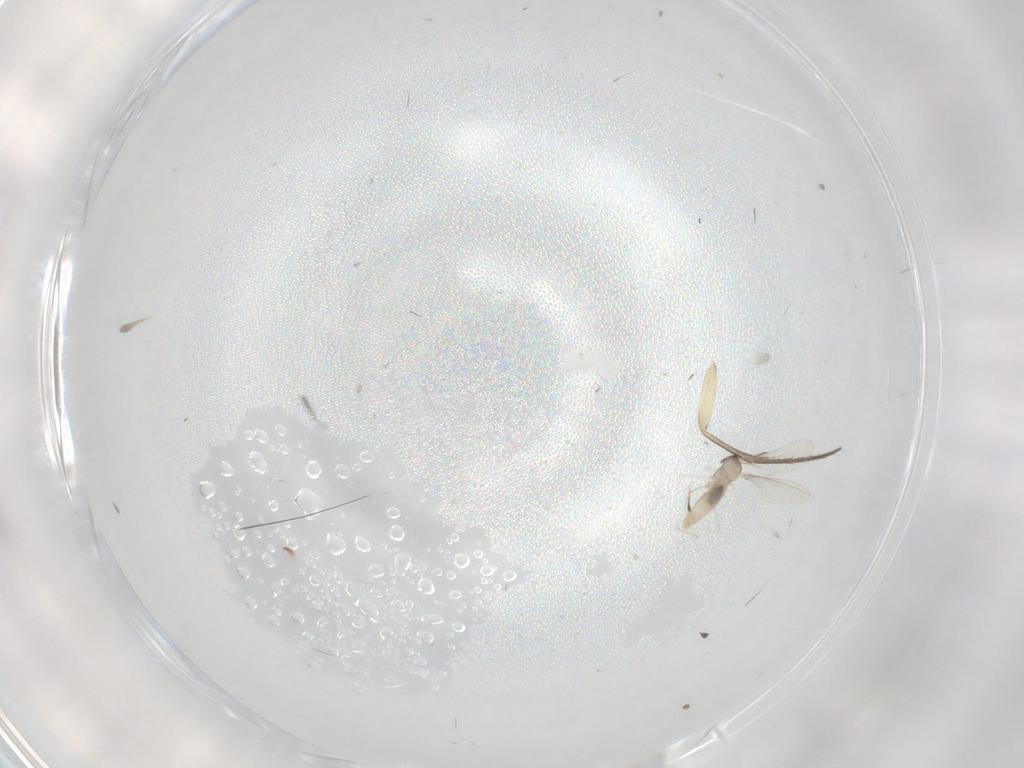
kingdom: Animalia
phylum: Arthropoda
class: Insecta
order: Diptera
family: Cecidomyiidae
